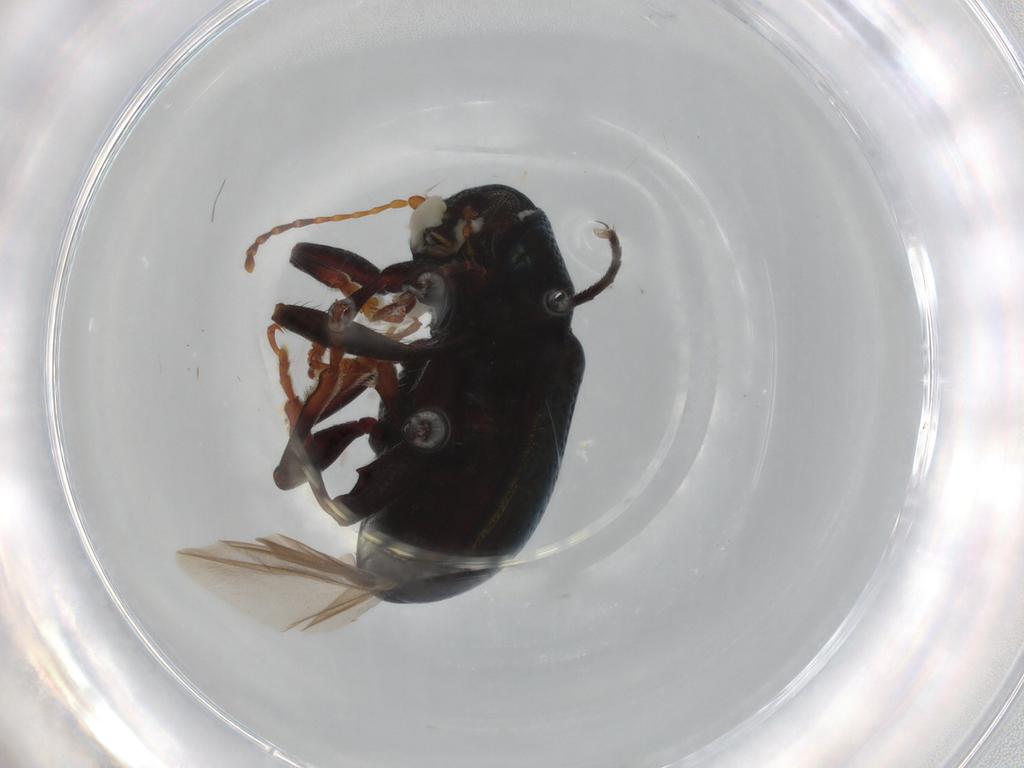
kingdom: Animalia
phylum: Arthropoda
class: Insecta
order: Coleoptera
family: Chrysomelidae
